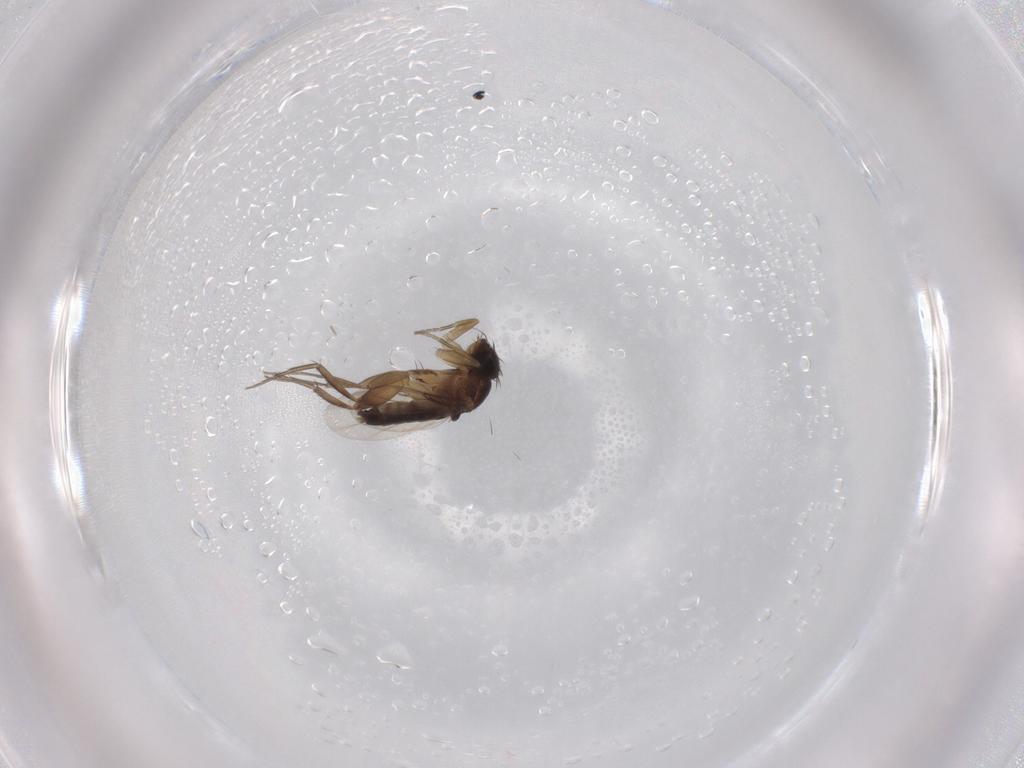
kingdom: Animalia
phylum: Arthropoda
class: Insecta
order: Diptera
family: Phoridae
